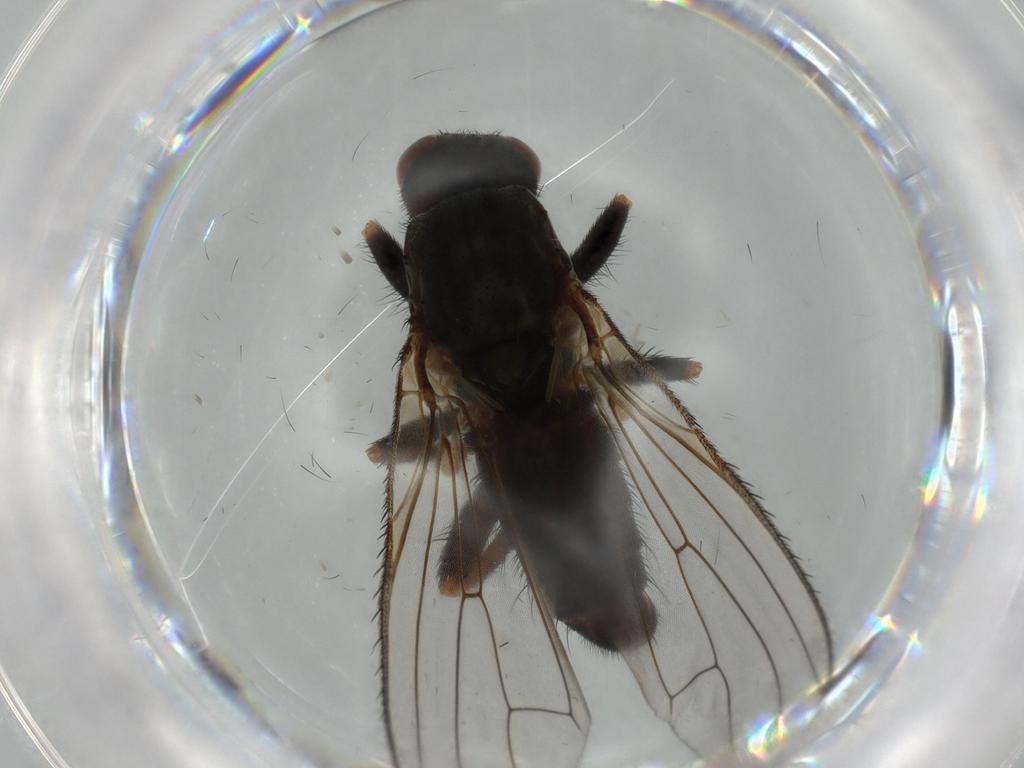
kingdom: Animalia
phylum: Arthropoda
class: Insecta
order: Diptera
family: Heleomyzidae
